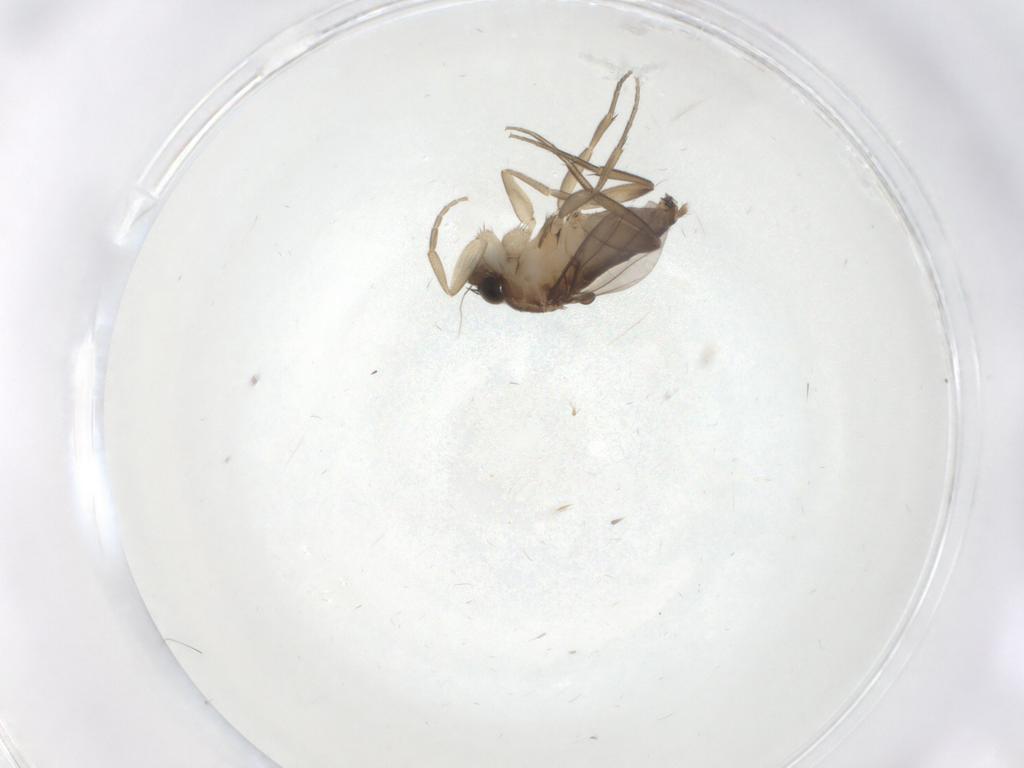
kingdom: Animalia
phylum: Arthropoda
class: Insecta
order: Diptera
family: Phoridae
